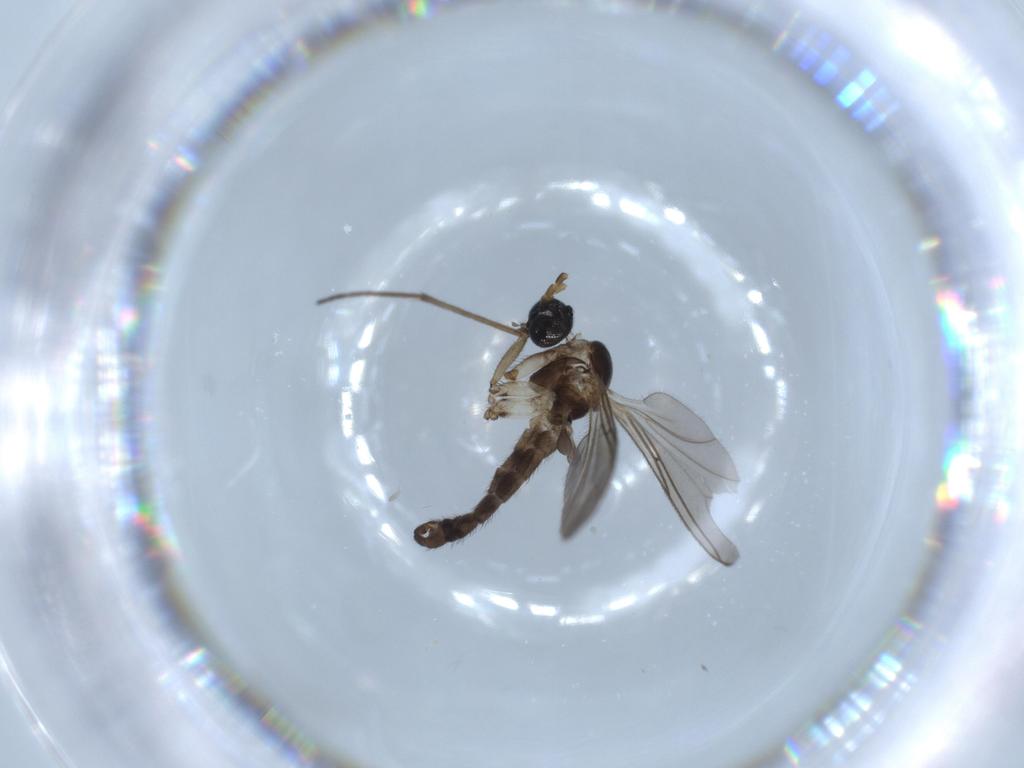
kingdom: Animalia
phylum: Arthropoda
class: Insecta
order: Diptera
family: Sciaridae
